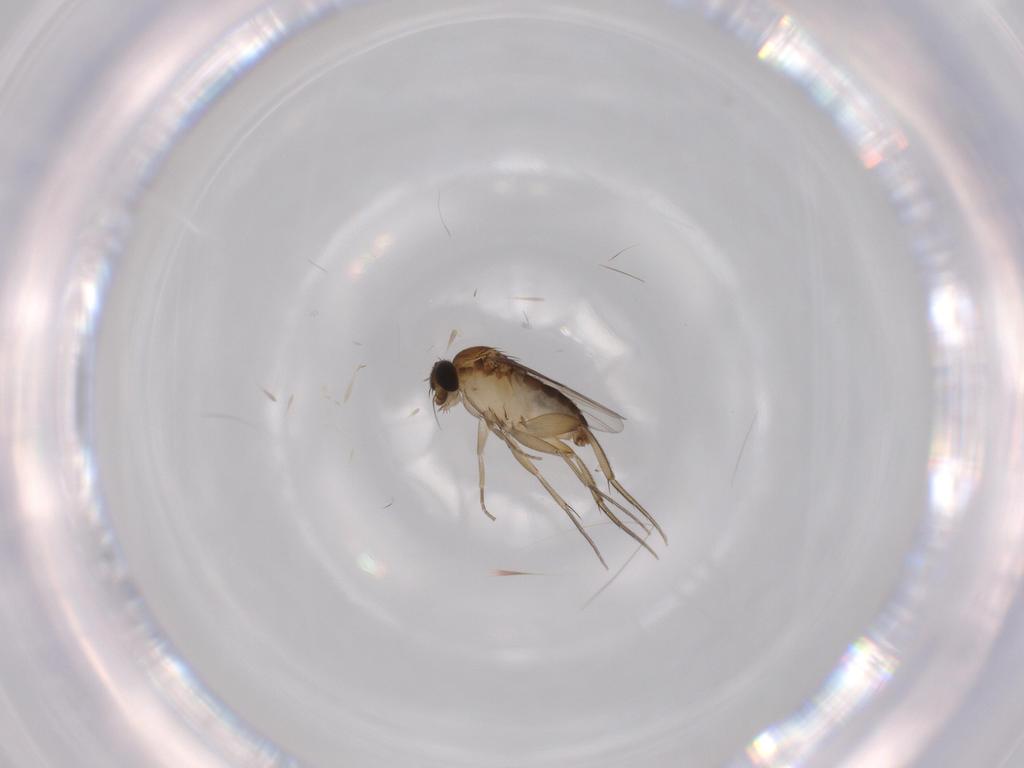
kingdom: Animalia
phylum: Arthropoda
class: Insecta
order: Diptera
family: Phoridae
